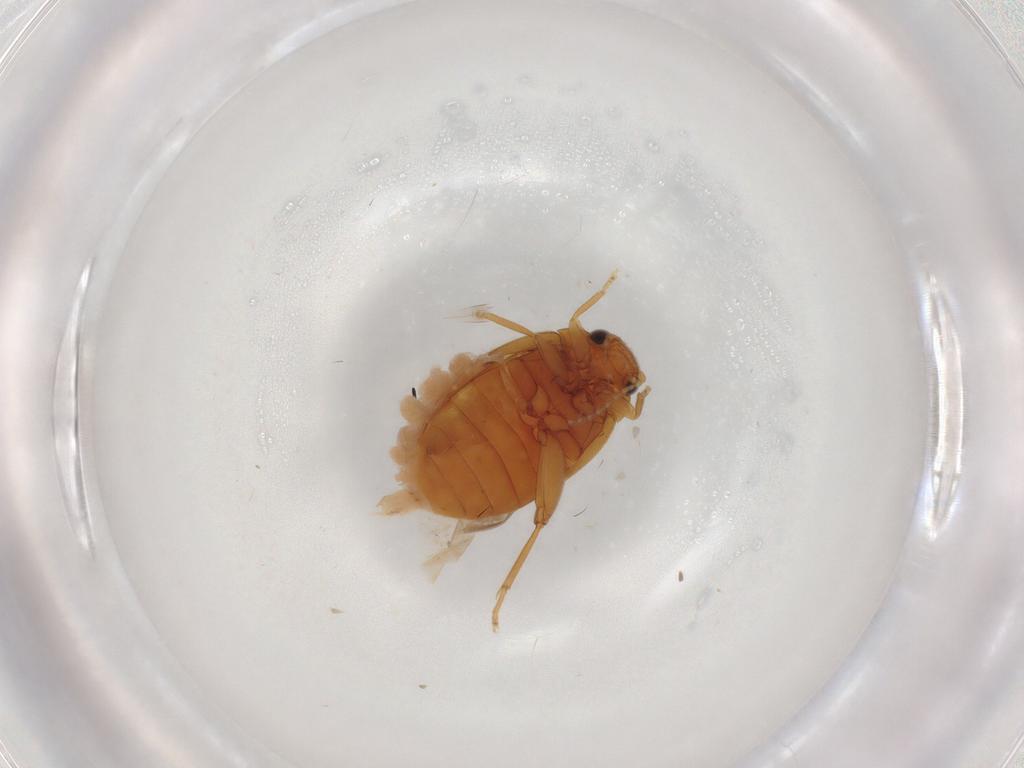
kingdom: Animalia
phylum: Arthropoda
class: Insecta
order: Coleoptera
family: Scirtidae
